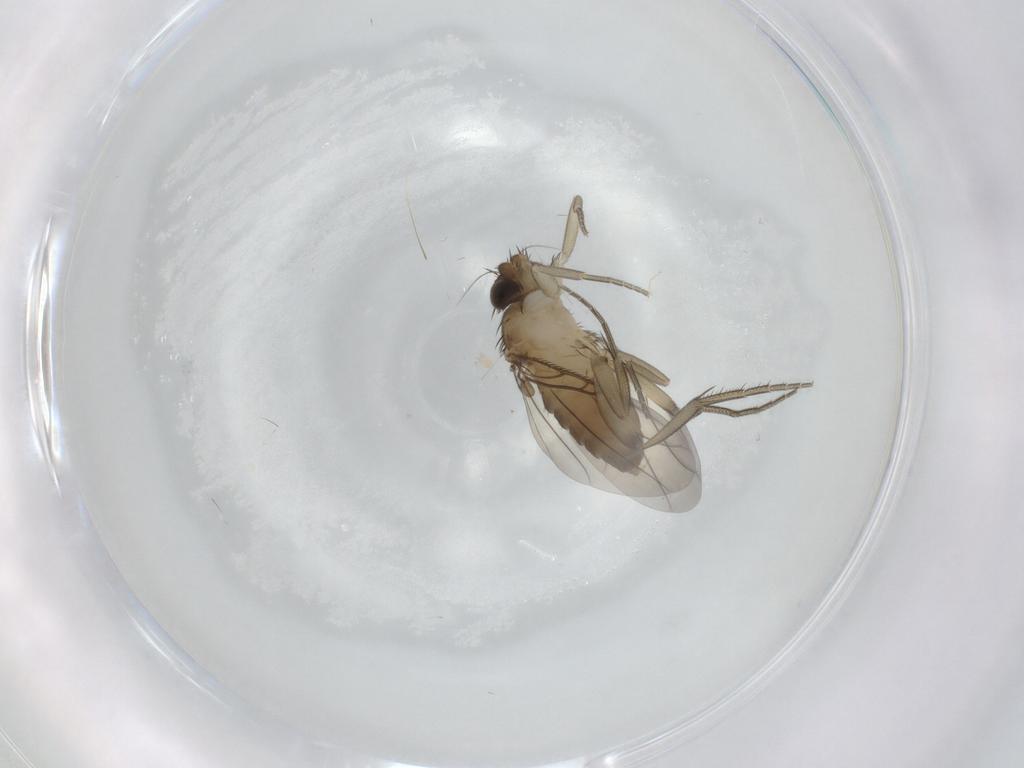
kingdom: Animalia
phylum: Arthropoda
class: Insecta
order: Diptera
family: Phoridae
